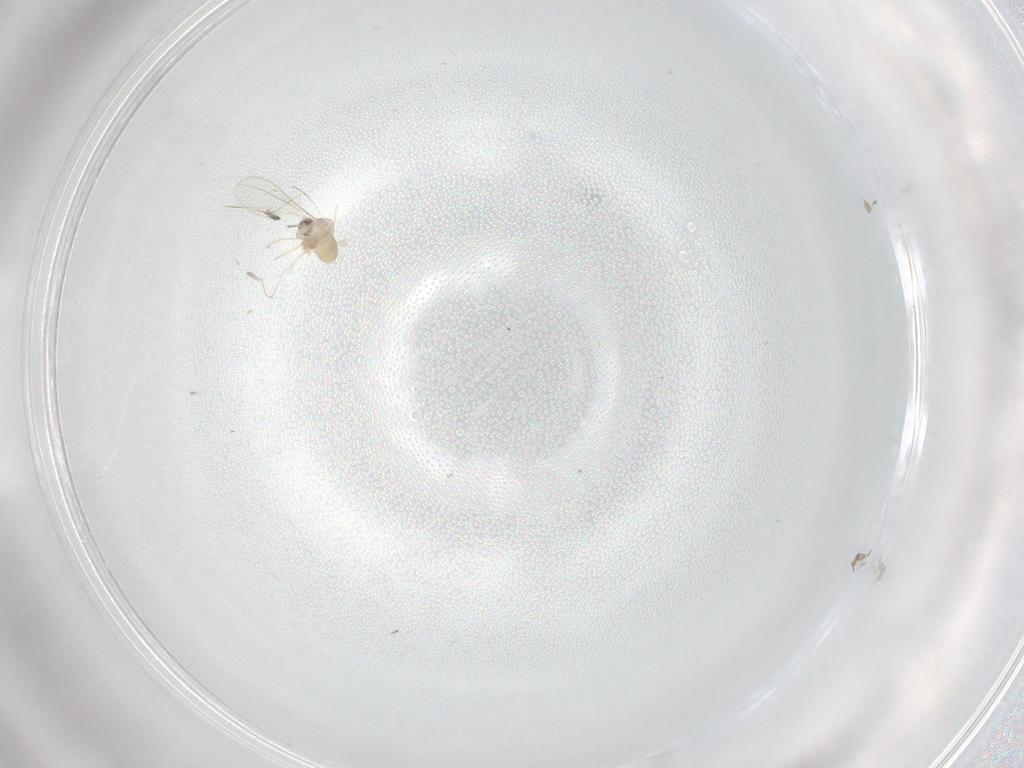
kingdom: Animalia
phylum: Arthropoda
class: Insecta
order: Diptera
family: Cecidomyiidae
